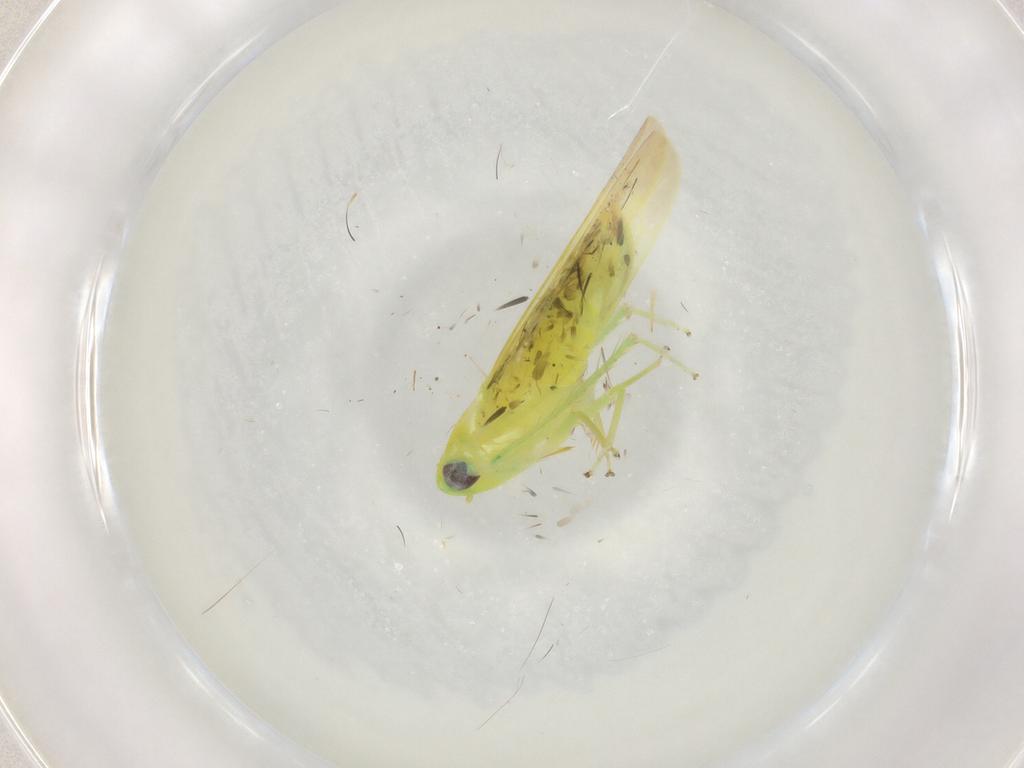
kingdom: Animalia
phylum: Arthropoda
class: Insecta
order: Hemiptera
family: Cicadellidae
